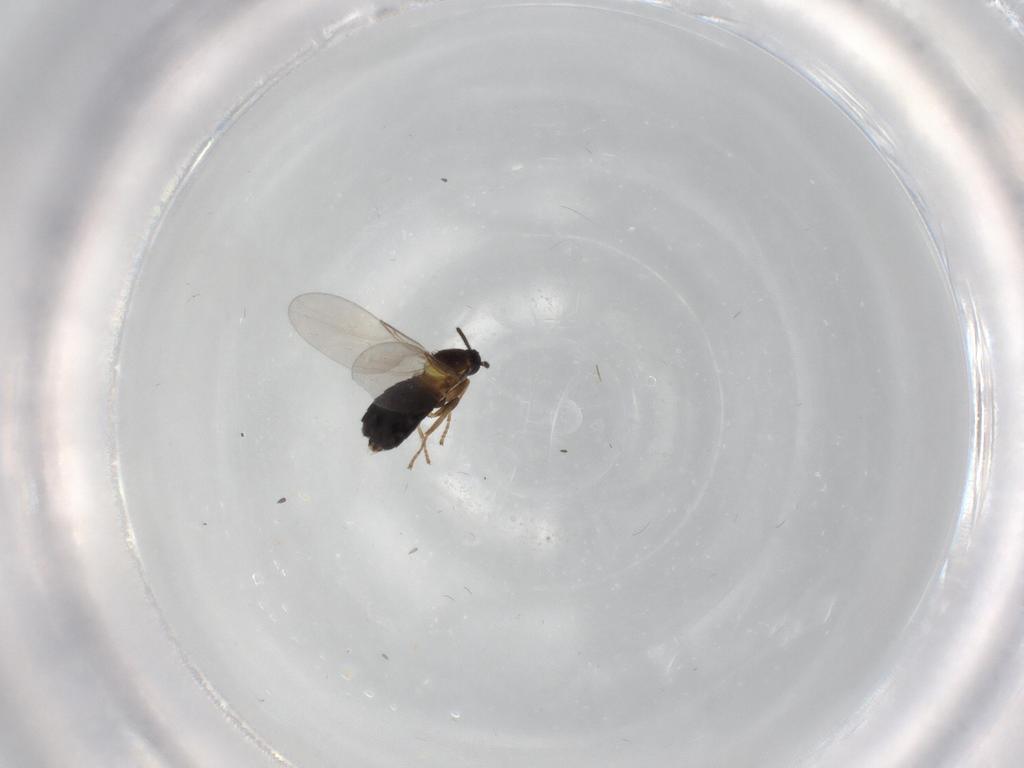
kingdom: Animalia
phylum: Arthropoda
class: Insecta
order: Diptera
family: Scatopsidae
